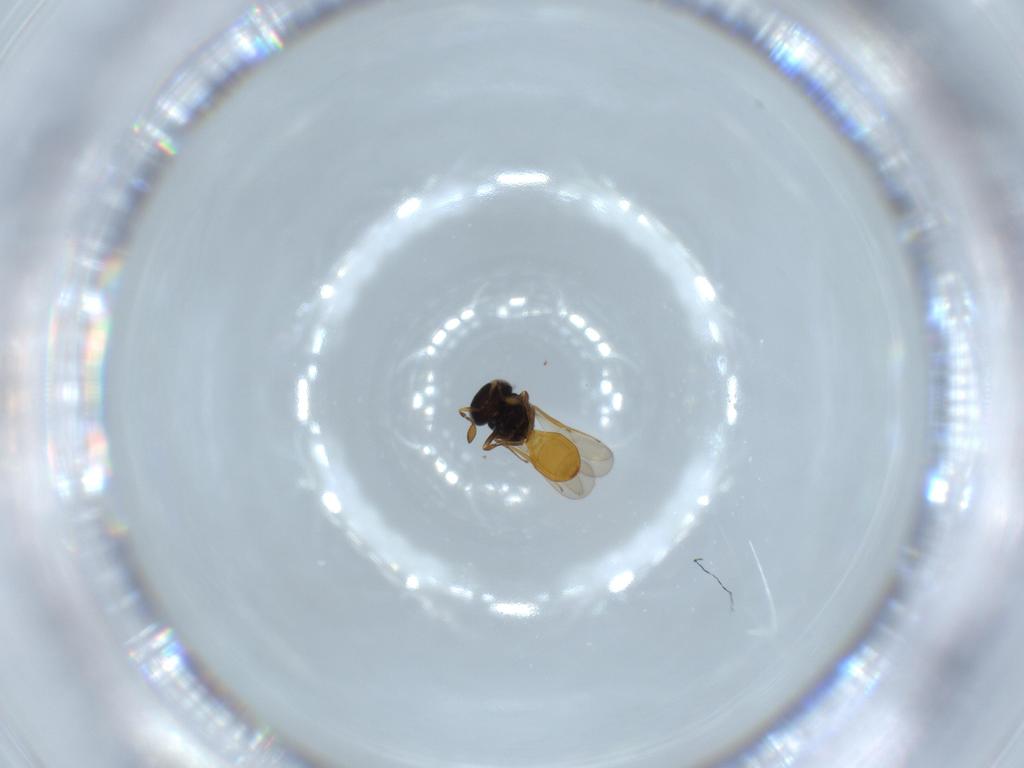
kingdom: Animalia
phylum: Arthropoda
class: Insecta
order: Hymenoptera
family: Scelionidae
